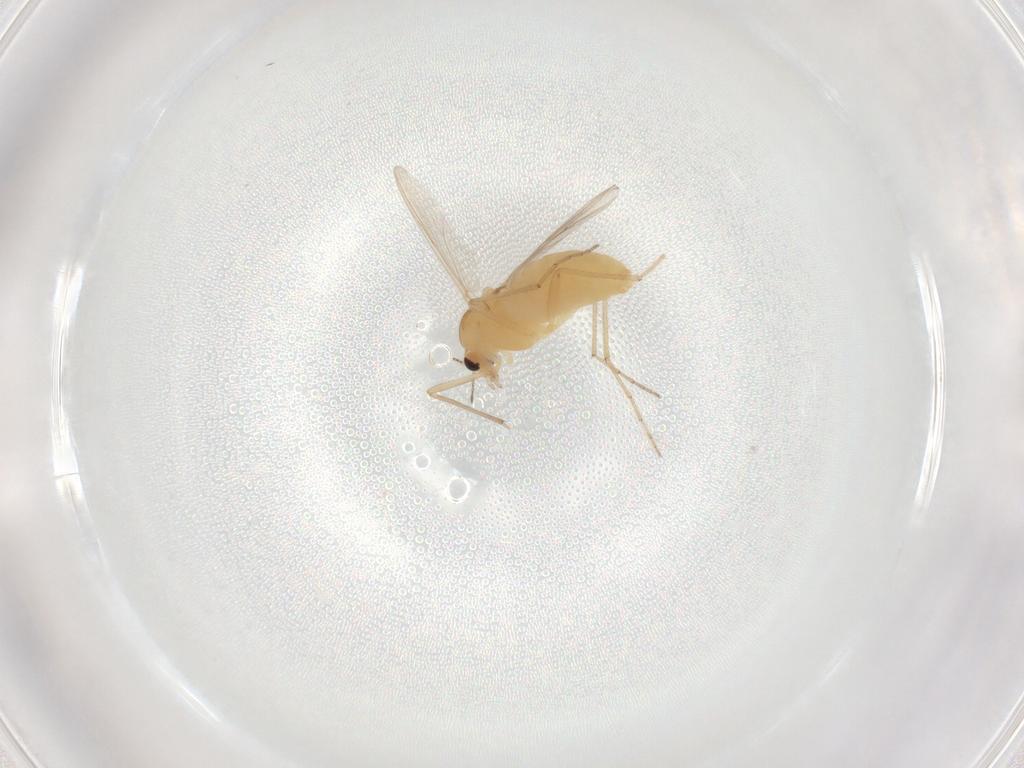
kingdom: Animalia
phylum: Arthropoda
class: Insecta
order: Diptera
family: Chironomidae
